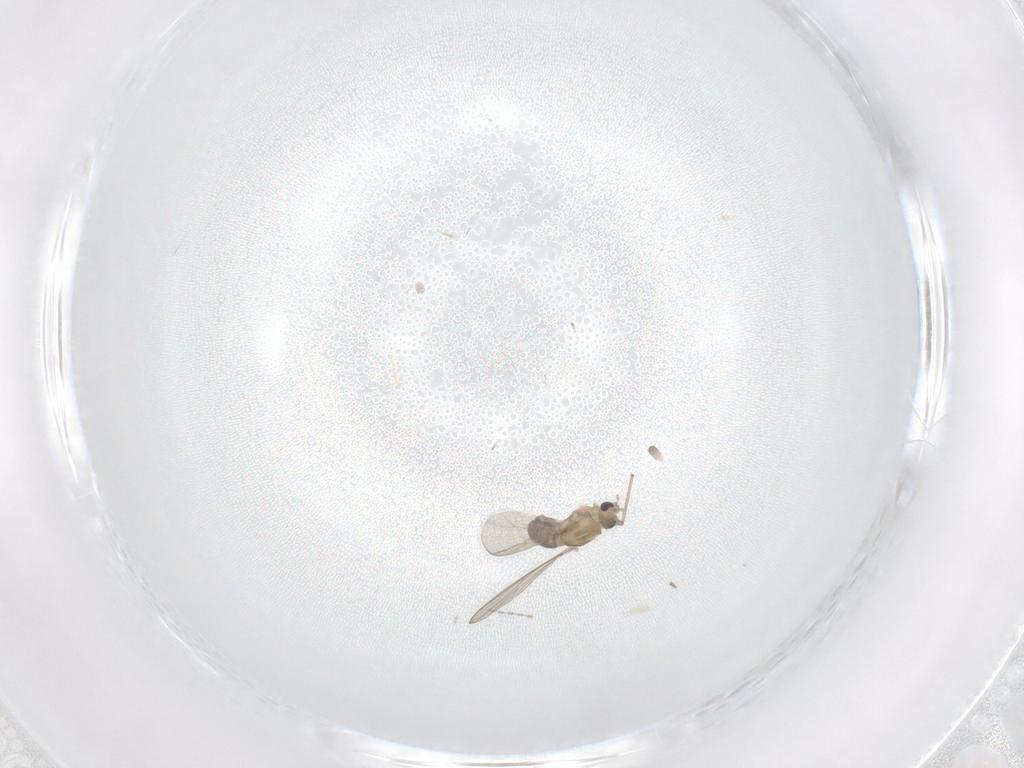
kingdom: Animalia
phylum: Arthropoda
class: Insecta
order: Diptera
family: Chironomidae
